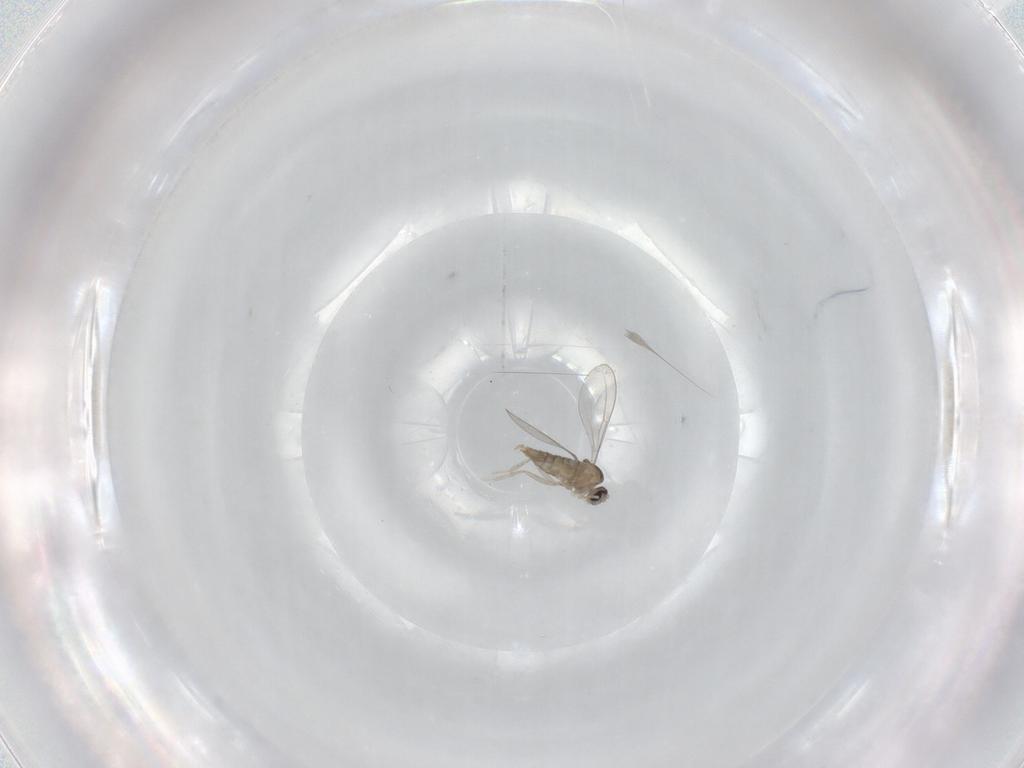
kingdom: Animalia
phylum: Arthropoda
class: Insecta
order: Diptera
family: Cecidomyiidae
